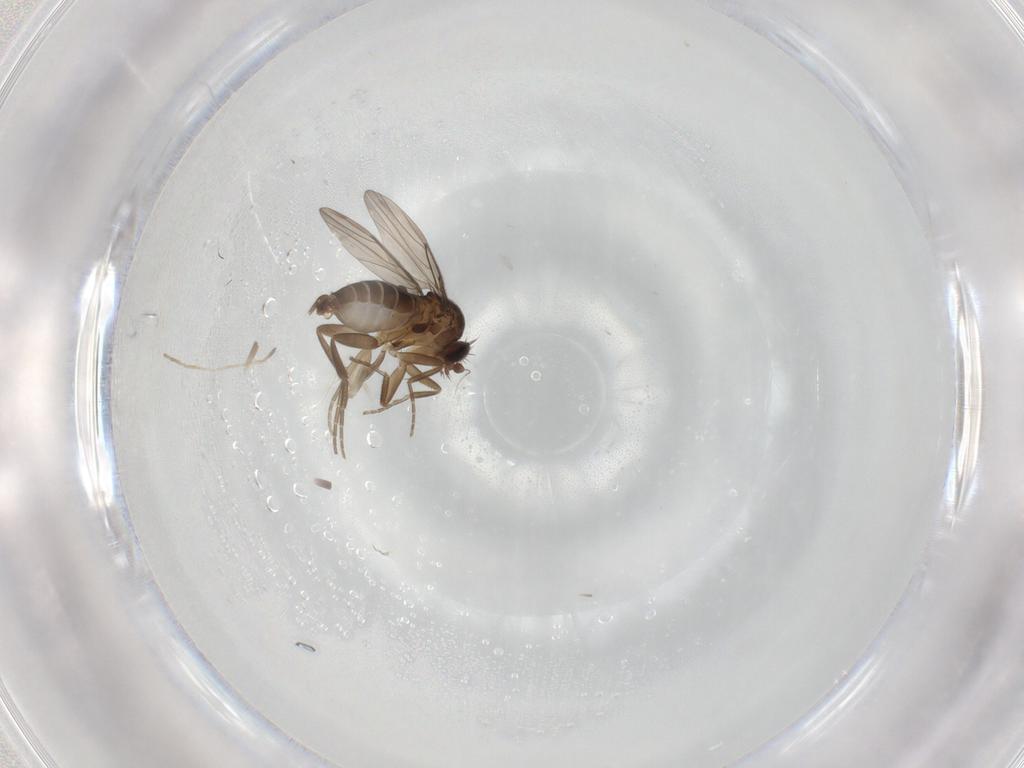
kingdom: Animalia
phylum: Arthropoda
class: Insecta
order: Diptera
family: Phoridae
